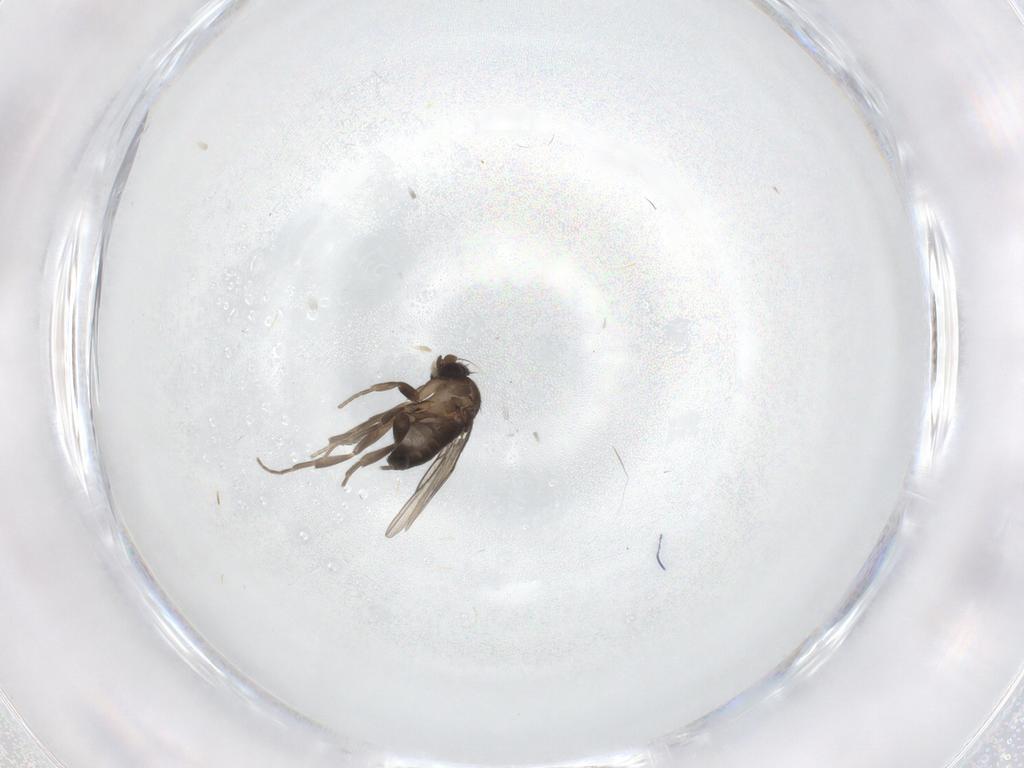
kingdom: Animalia
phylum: Arthropoda
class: Insecta
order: Diptera
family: Phoridae
